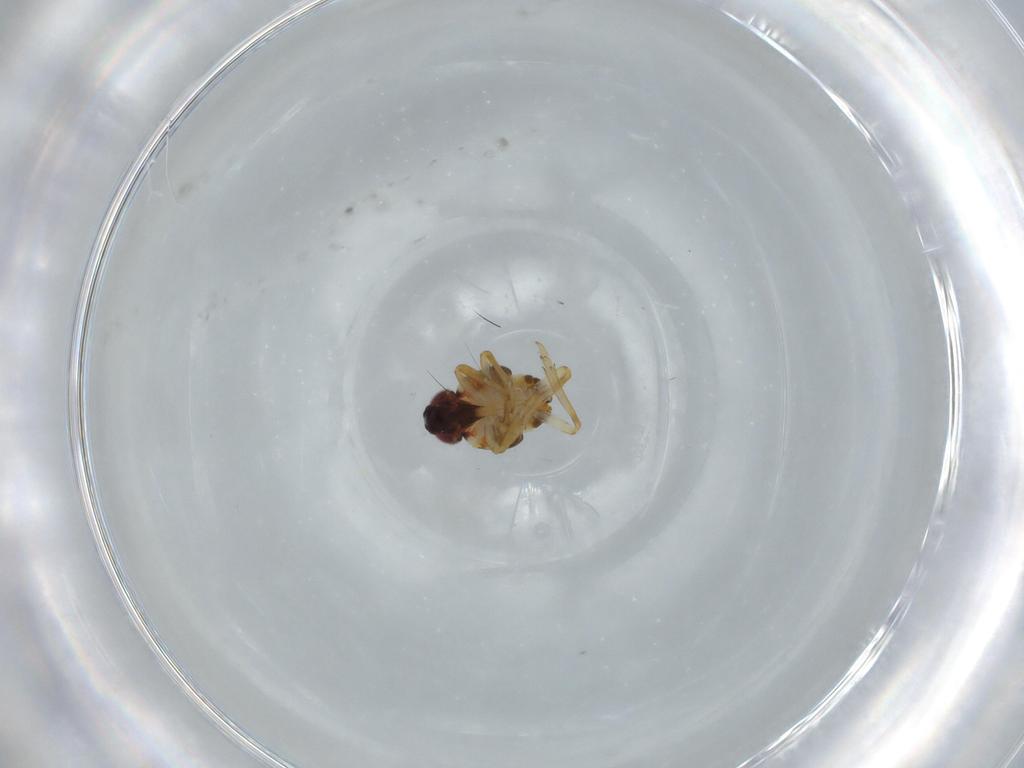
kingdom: Animalia
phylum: Arthropoda
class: Insecta
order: Hemiptera
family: Issidae
